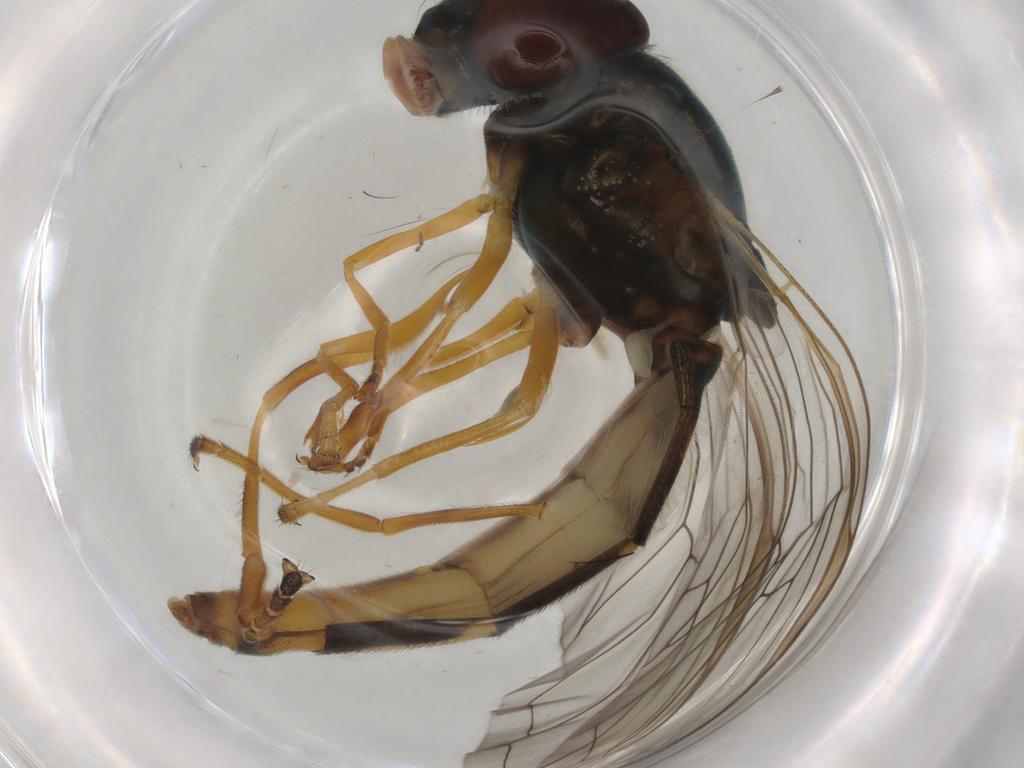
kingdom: Animalia
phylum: Arthropoda
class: Insecta
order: Diptera
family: Syrphidae
